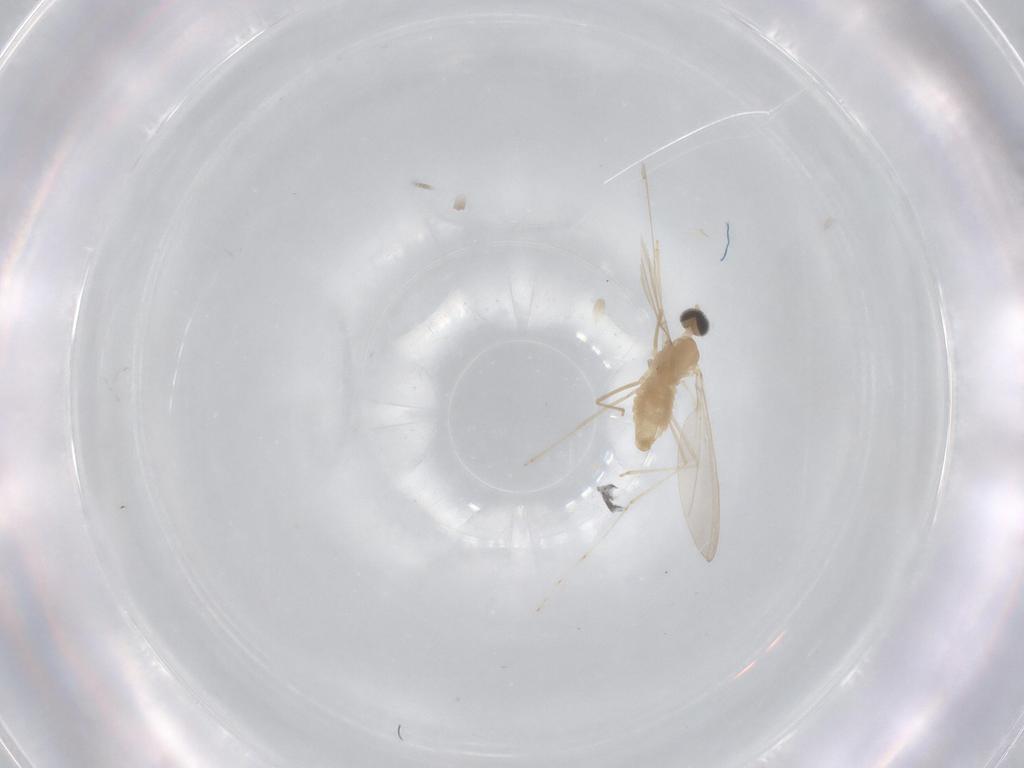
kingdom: Animalia
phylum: Arthropoda
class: Insecta
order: Diptera
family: Cecidomyiidae
